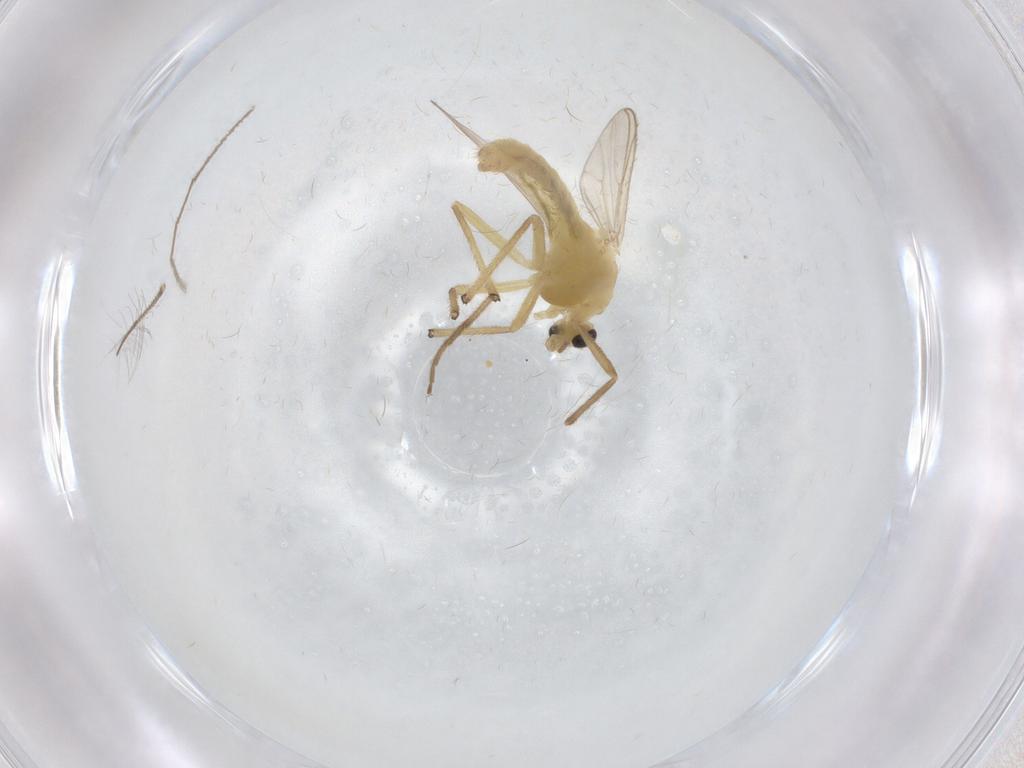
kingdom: Animalia
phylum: Arthropoda
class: Insecta
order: Diptera
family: Chironomidae
